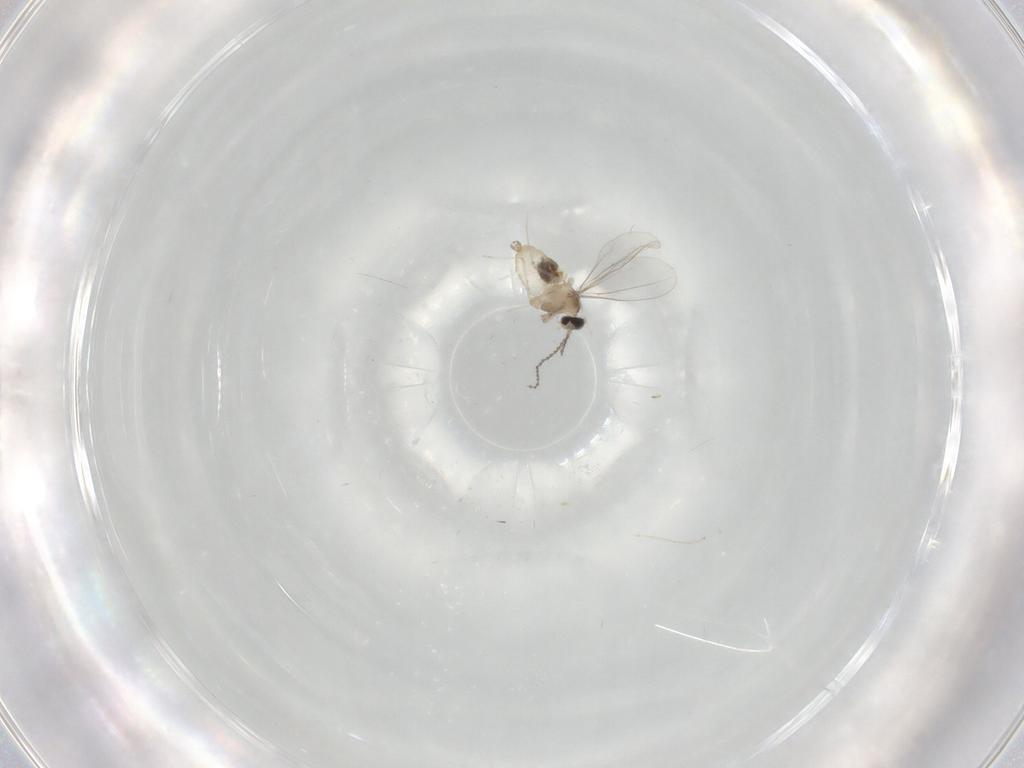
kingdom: Animalia
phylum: Arthropoda
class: Insecta
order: Diptera
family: Cecidomyiidae
